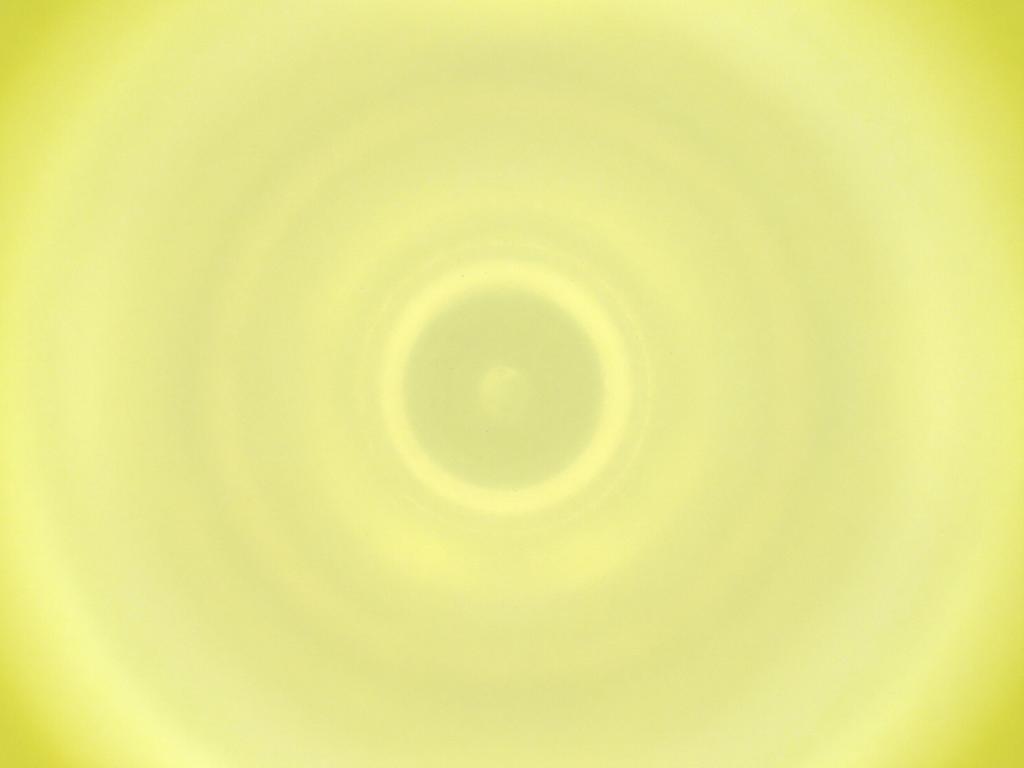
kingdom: Animalia
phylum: Arthropoda
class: Insecta
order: Diptera
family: Cecidomyiidae
